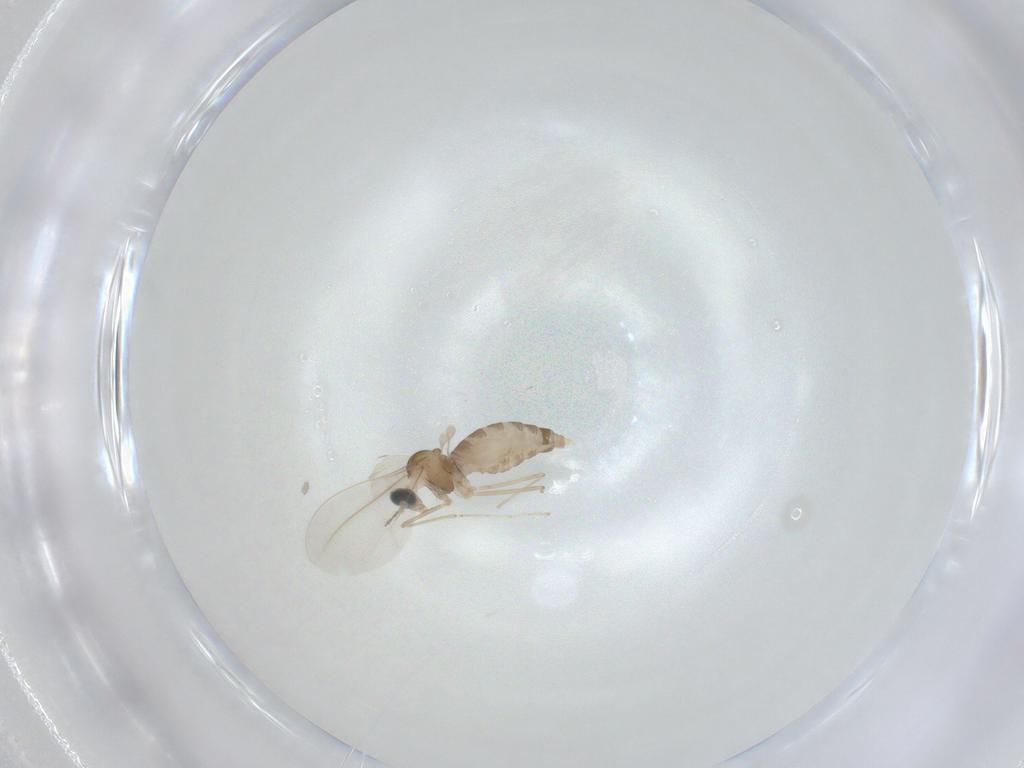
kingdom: Animalia
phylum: Arthropoda
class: Insecta
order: Diptera
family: Cecidomyiidae
